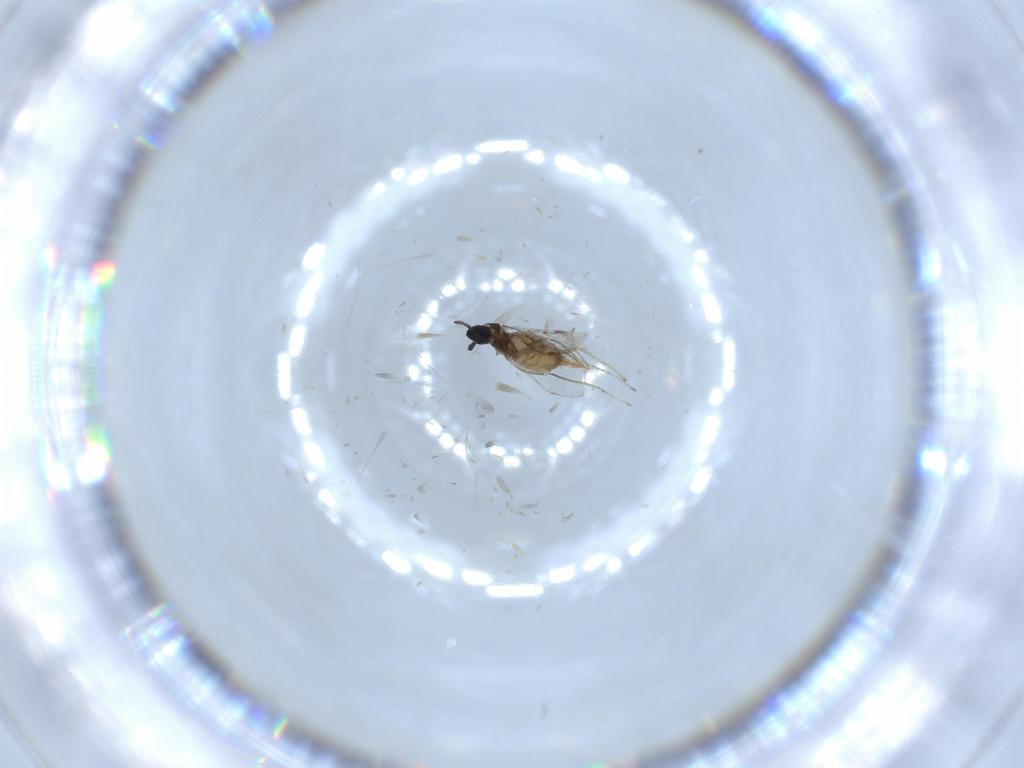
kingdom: Animalia
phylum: Arthropoda
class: Insecta
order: Diptera
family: Cecidomyiidae
